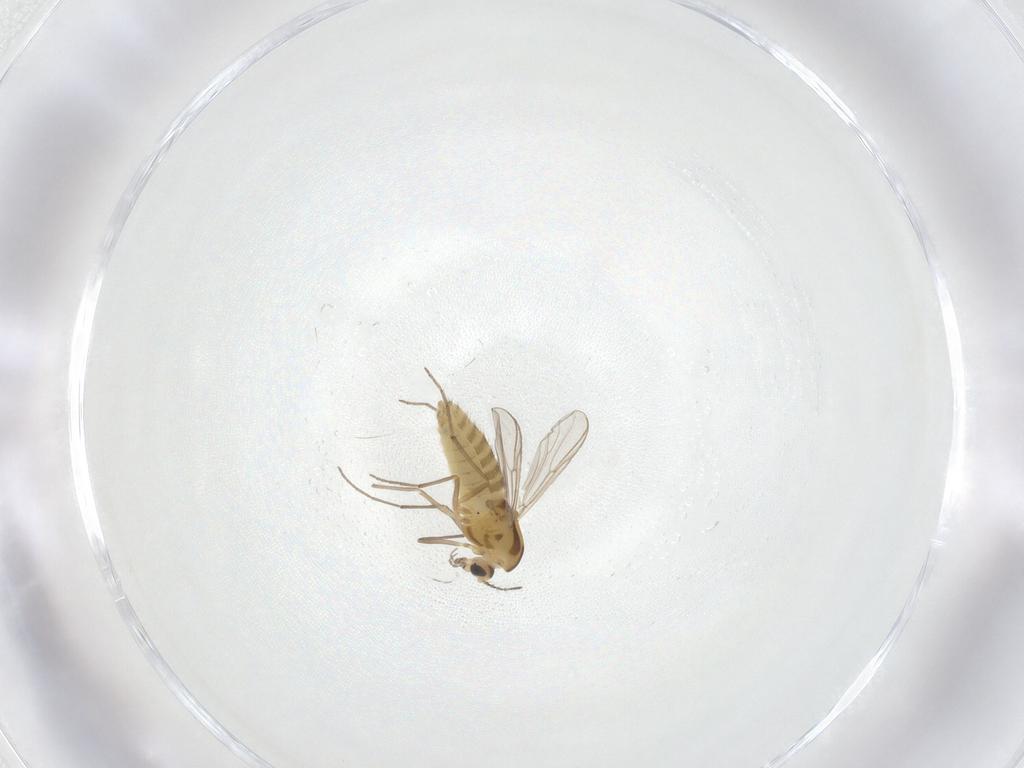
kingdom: Animalia
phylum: Arthropoda
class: Insecta
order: Diptera
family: Chironomidae
